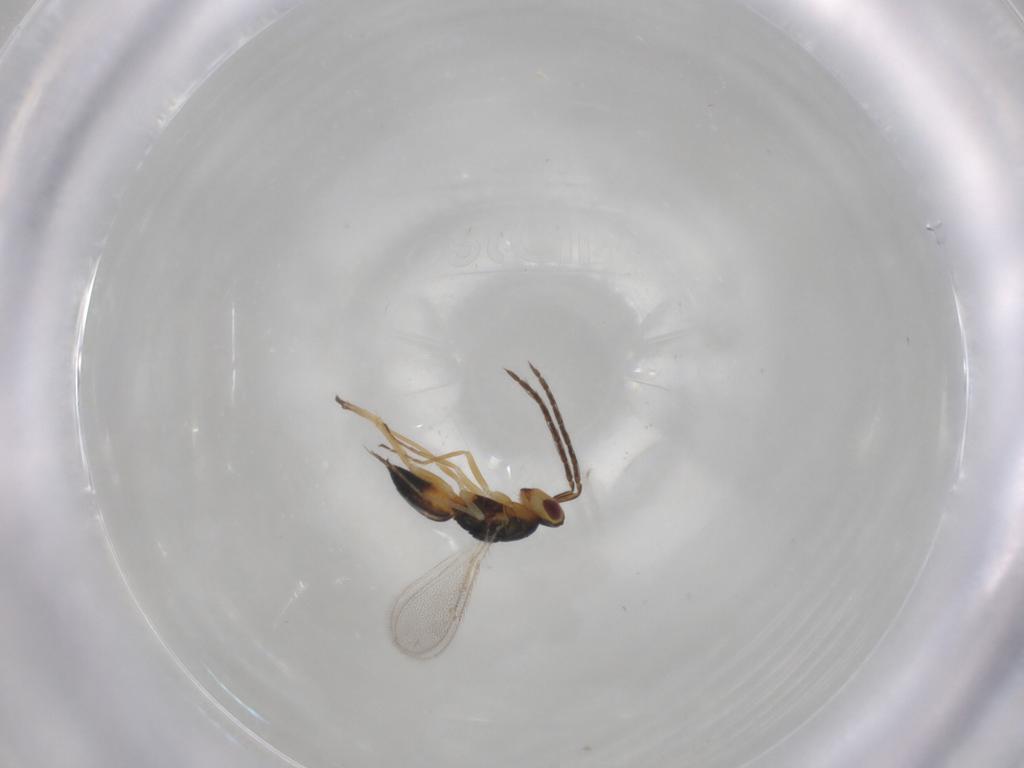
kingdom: Animalia
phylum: Arthropoda
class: Insecta
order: Hymenoptera
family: Eulophidae
